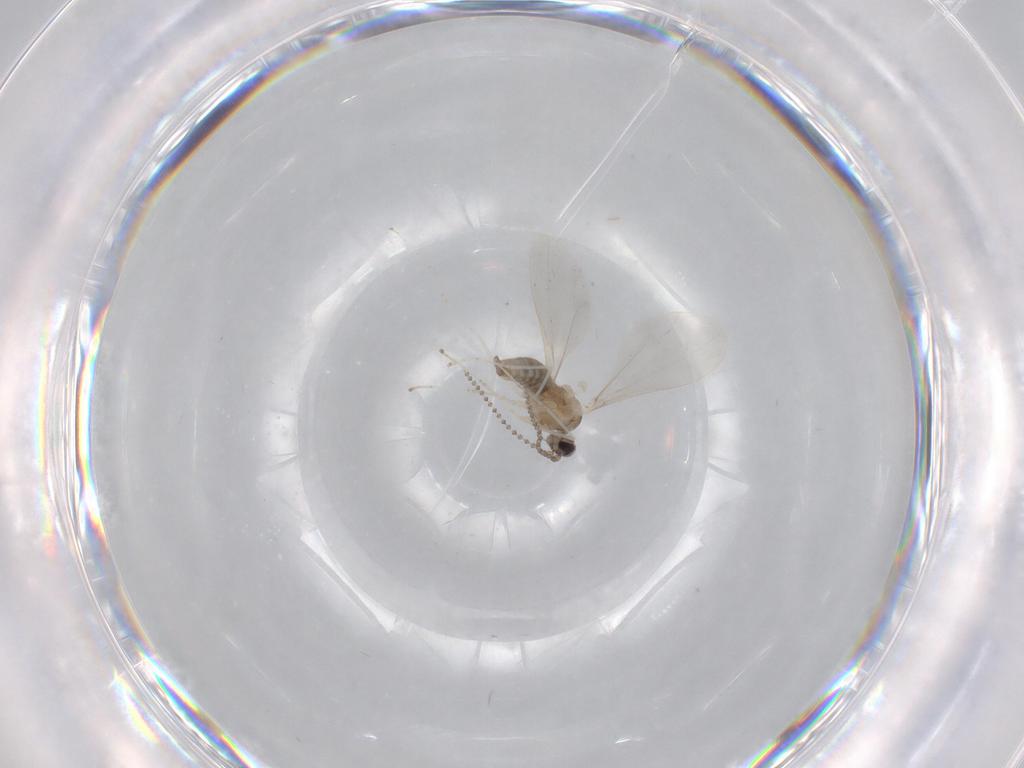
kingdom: Animalia
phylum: Arthropoda
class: Insecta
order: Diptera
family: Cecidomyiidae
